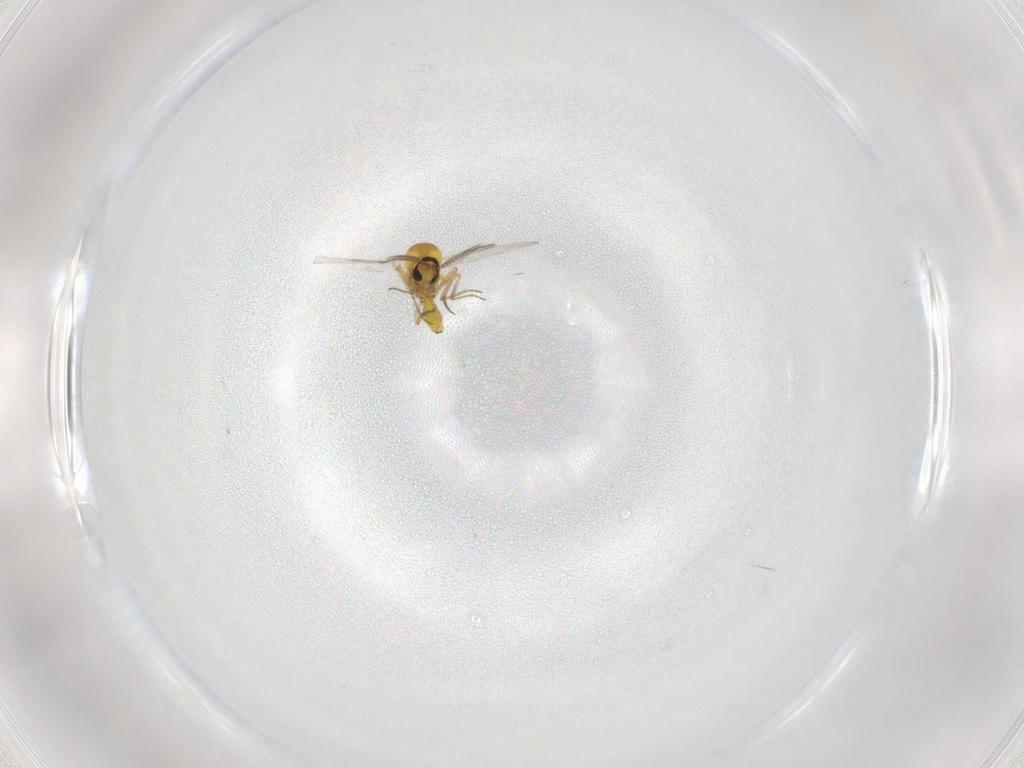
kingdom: Animalia
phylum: Arthropoda
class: Insecta
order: Diptera
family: Ceratopogonidae
